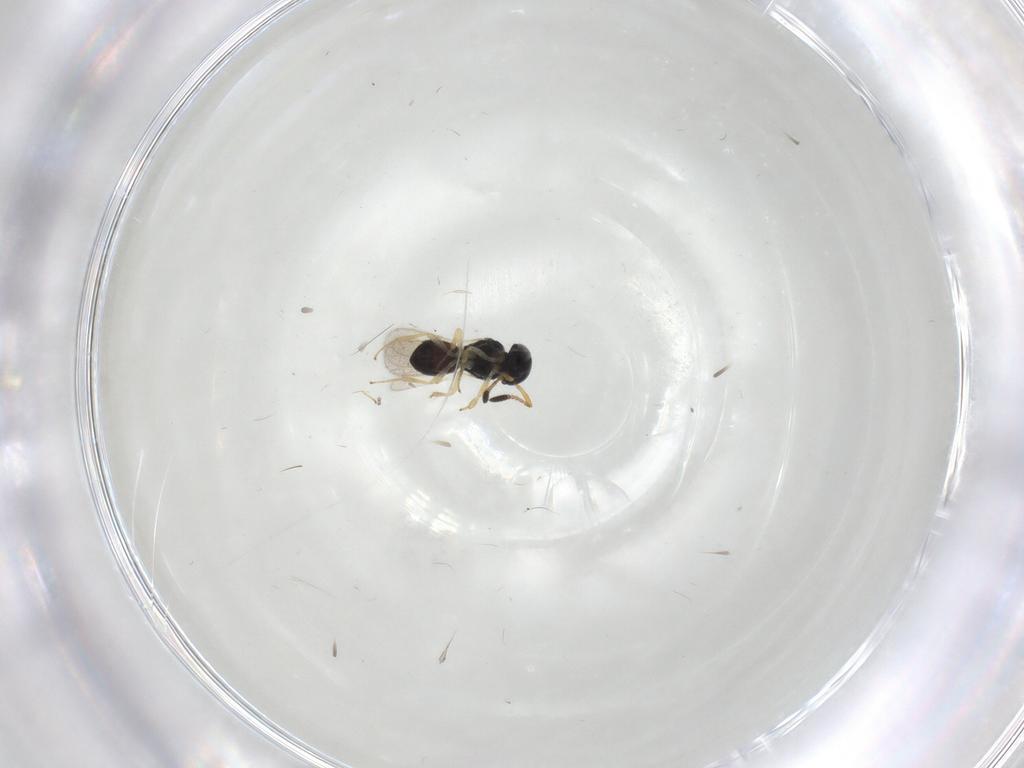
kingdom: Animalia
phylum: Arthropoda
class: Insecta
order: Hymenoptera
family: Scelionidae
